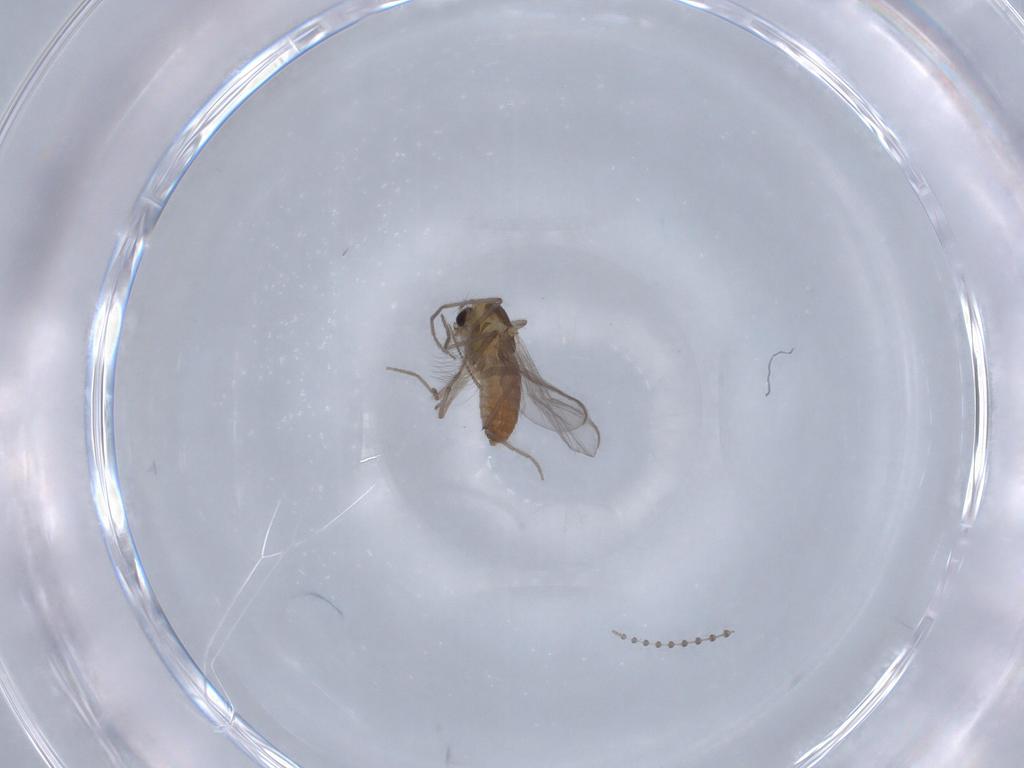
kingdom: Animalia
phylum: Arthropoda
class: Insecta
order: Diptera
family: Chironomidae
